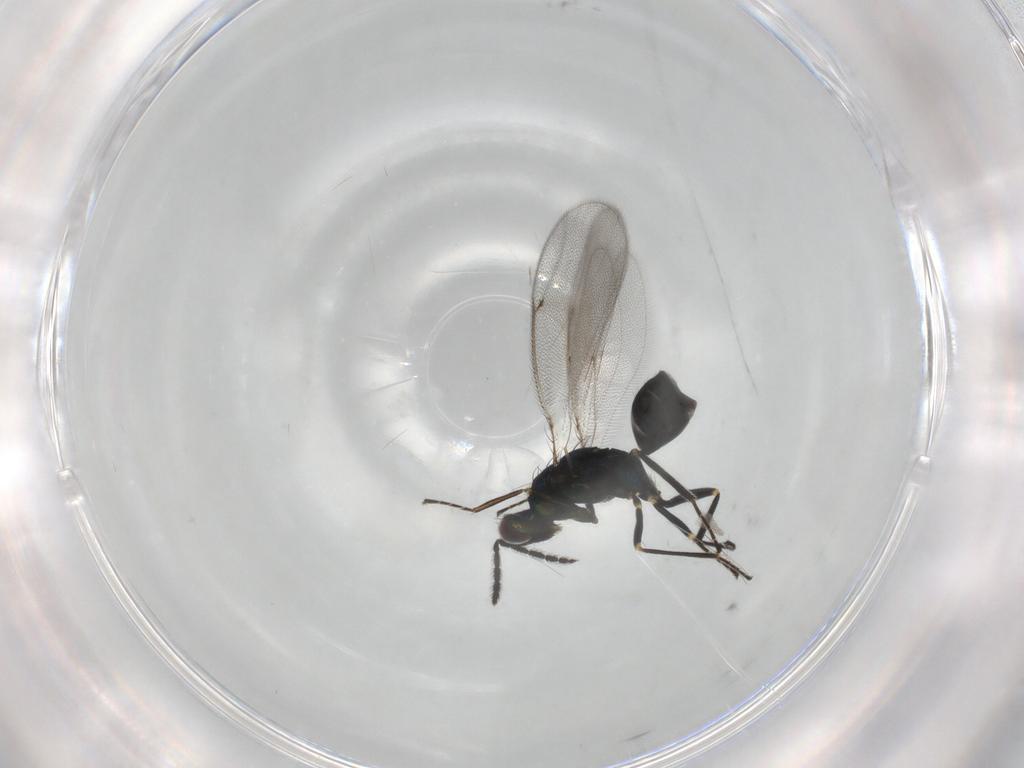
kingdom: Animalia
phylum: Arthropoda
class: Insecta
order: Hymenoptera
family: Eulophidae
